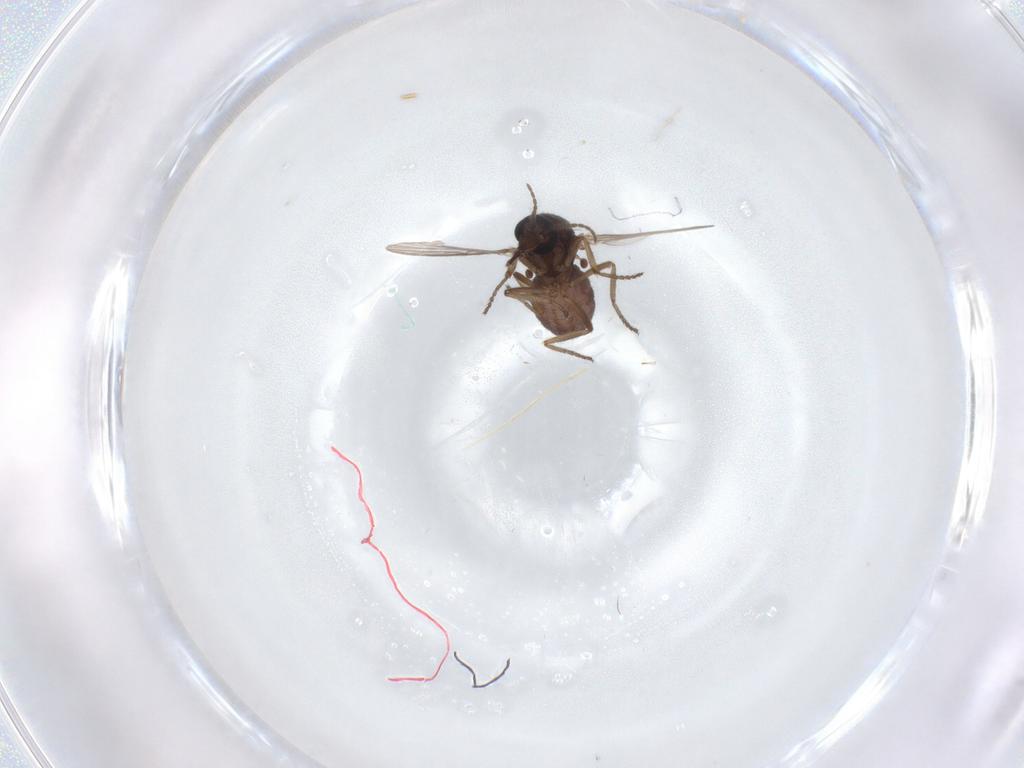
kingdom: Animalia
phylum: Arthropoda
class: Insecta
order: Diptera
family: Ceratopogonidae
